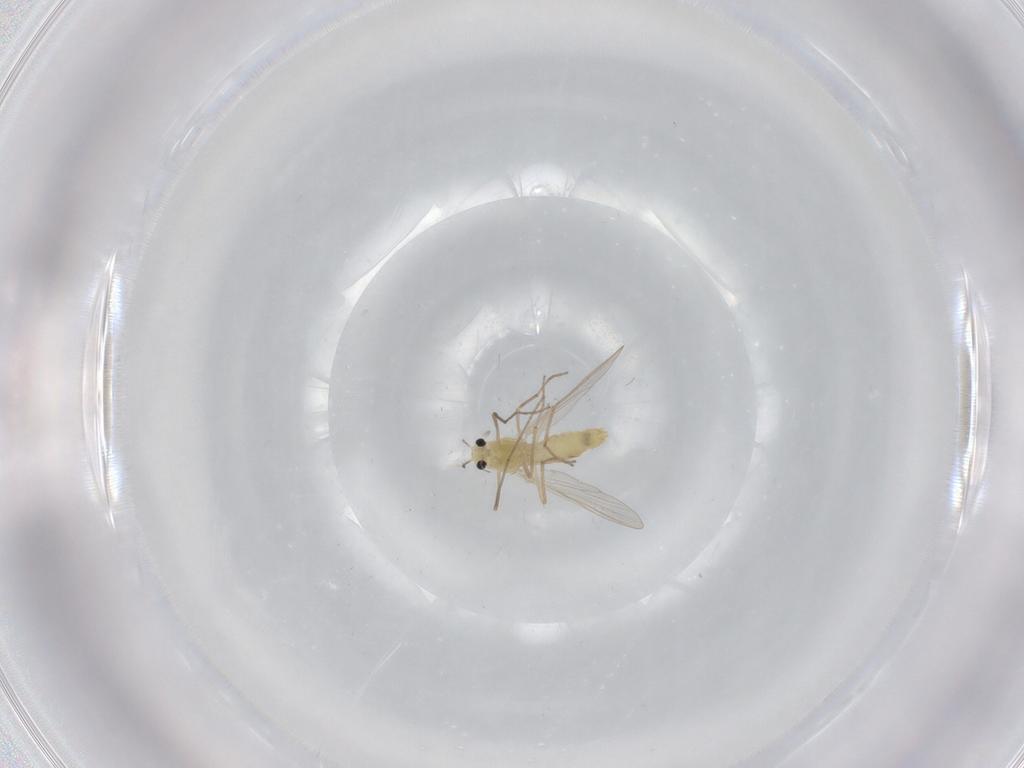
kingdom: Animalia
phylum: Arthropoda
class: Insecta
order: Diptera
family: Chironomidae
